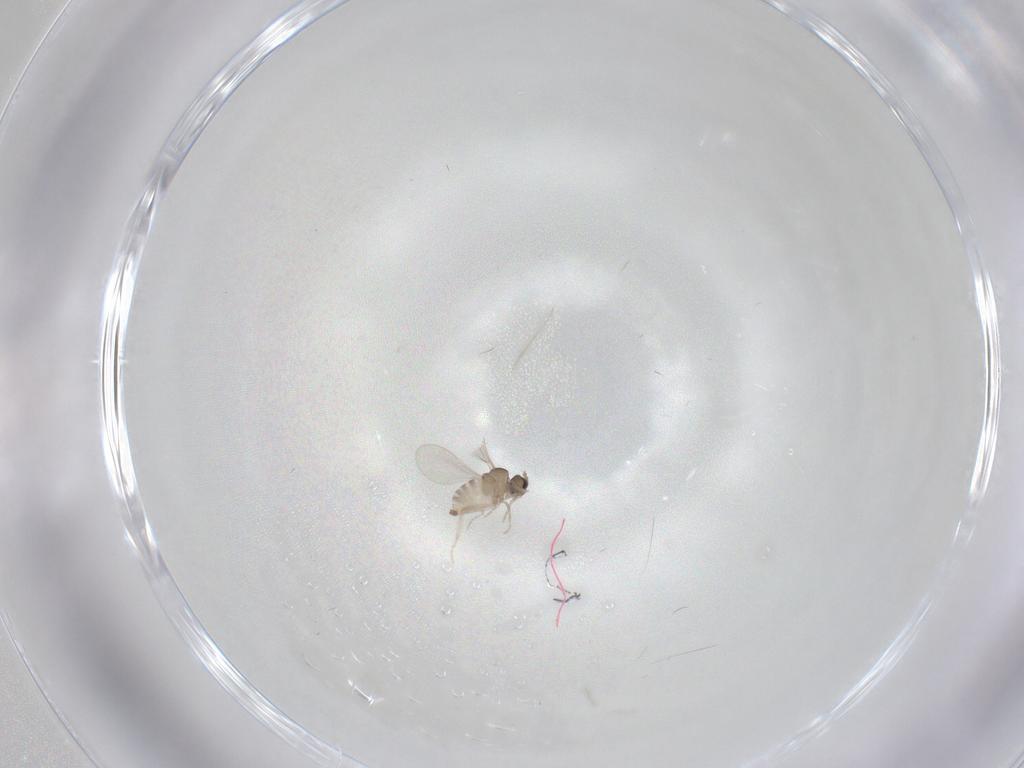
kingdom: Animalia
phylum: Arthropoda
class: Insecta
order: Diptera
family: Cecidomyiidae
